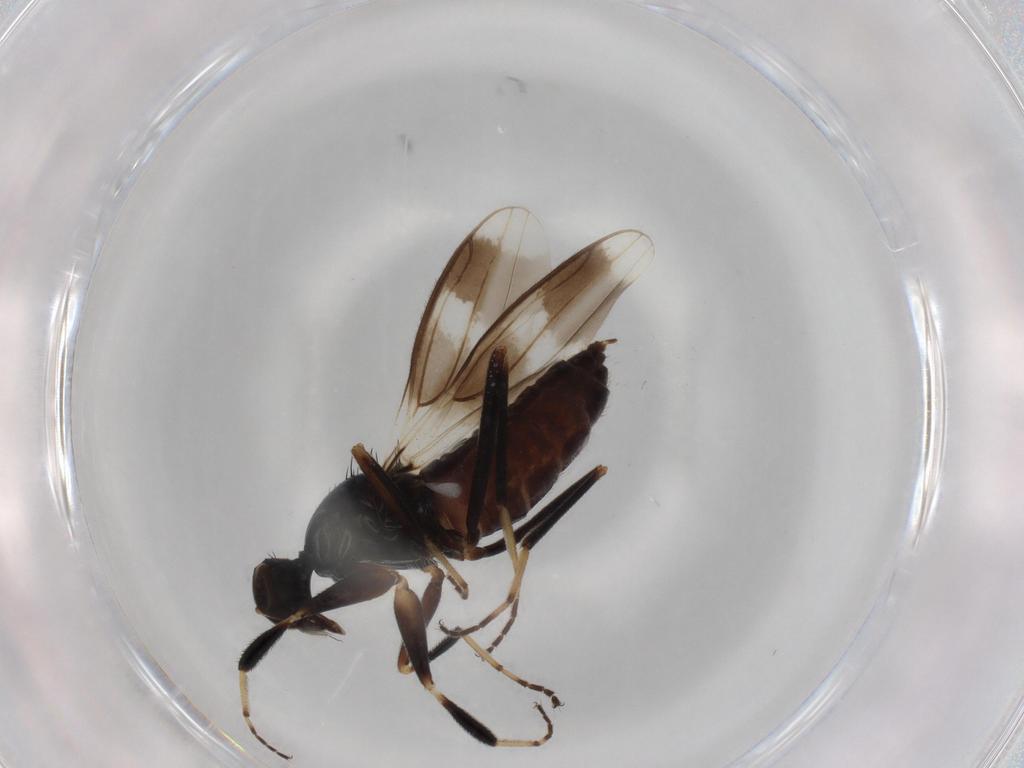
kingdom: Animalia
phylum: Arthropoda
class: Insecta
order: Diptera
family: Hybotidae
